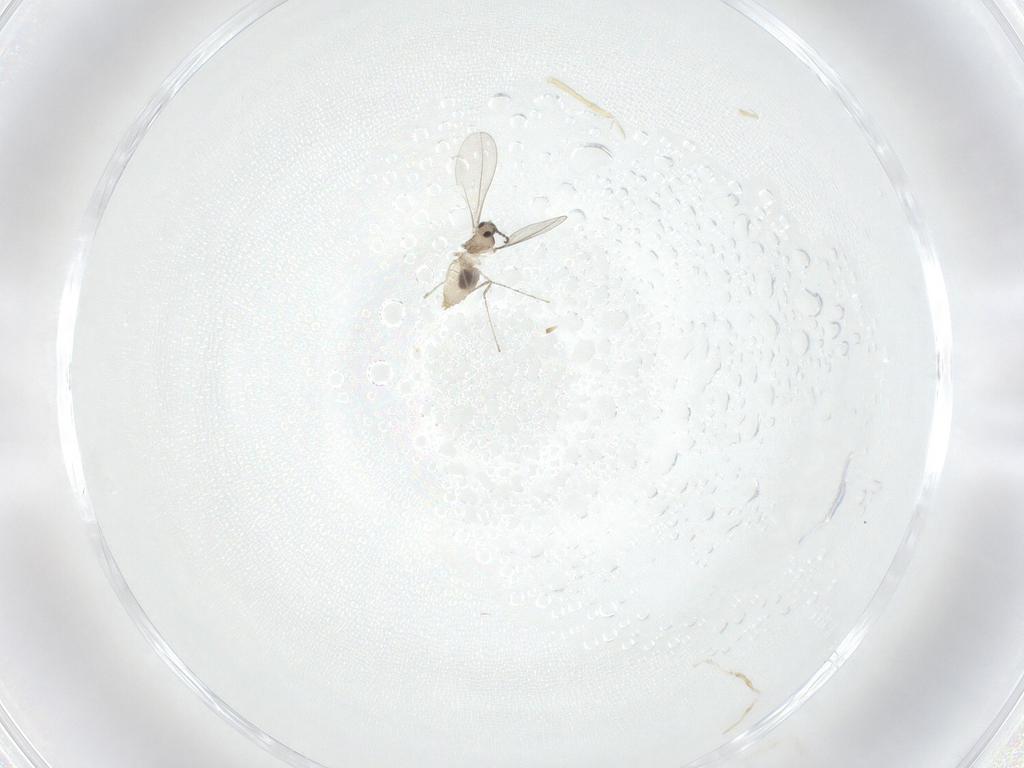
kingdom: Animalia
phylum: Arthropoda
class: Insecta
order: Diptera
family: Cecidomyiidae
